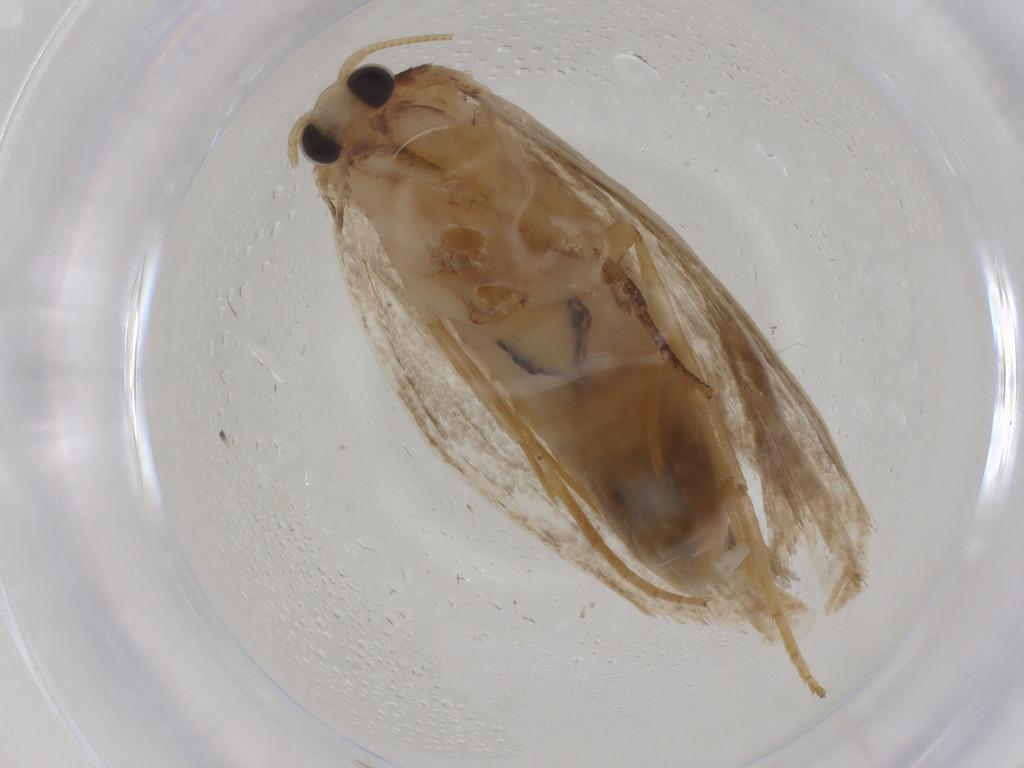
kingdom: Animalia
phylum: Arthropoda
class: Insecta
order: Lepidoptera
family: Tineidae
